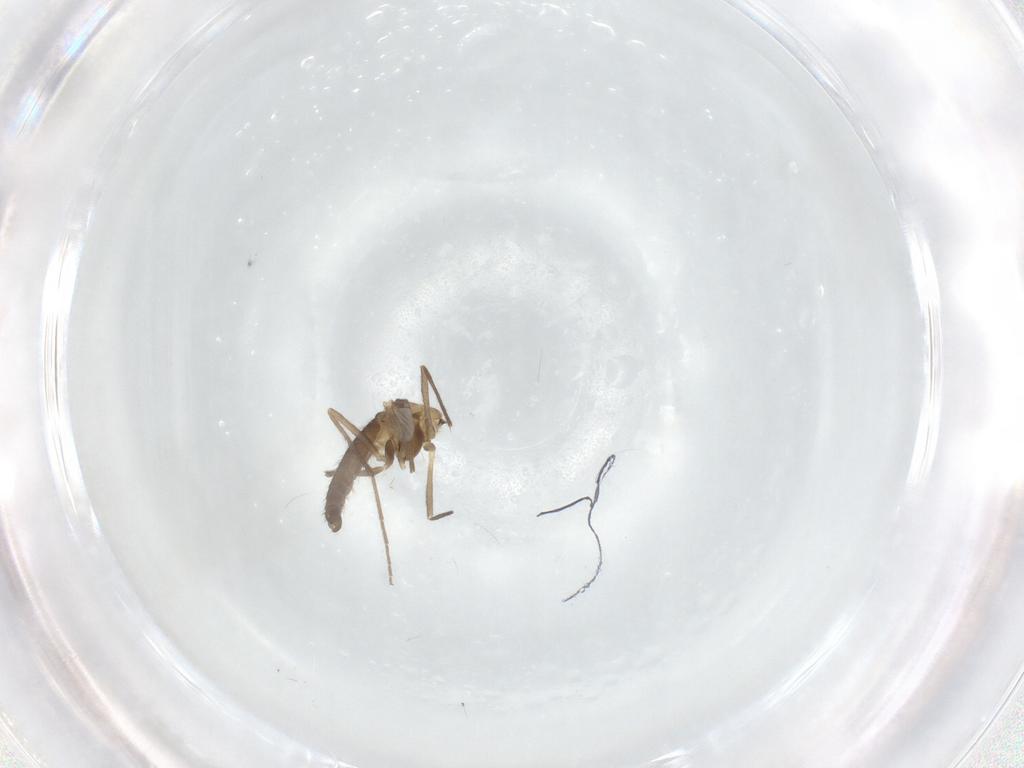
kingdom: Animalia
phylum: Arthropoda
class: Insecta
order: Diptera
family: Chironomidae
